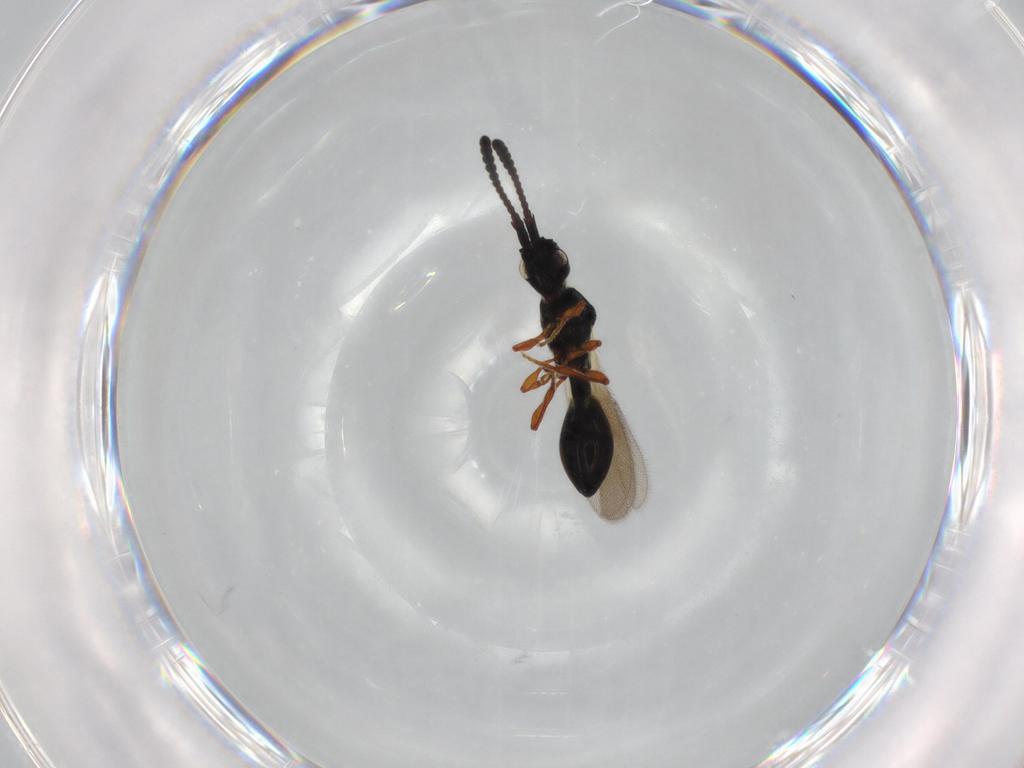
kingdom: Animalia
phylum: Arthropoda
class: Insecta
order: Hymenoptera
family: Diapriidae
